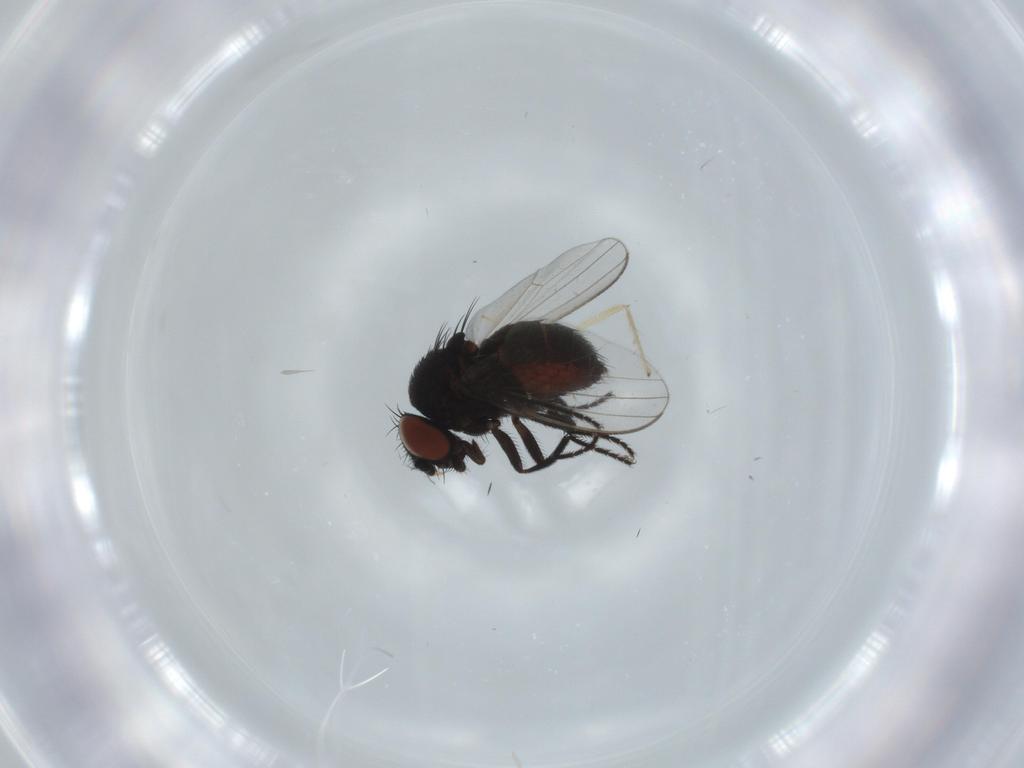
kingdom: Animalia
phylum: Arthropoda
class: Insecta
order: Diptera
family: Milichiidae
